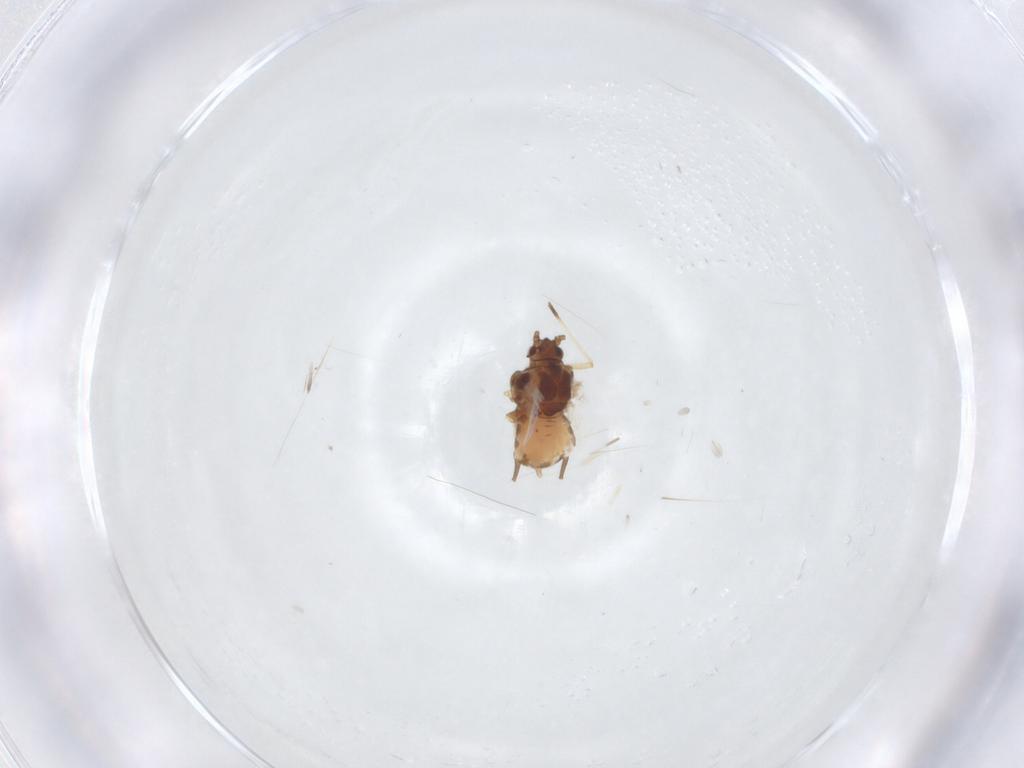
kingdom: Animalia
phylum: Arthropoda
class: Insecta
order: Hemiptera
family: Aphididae
